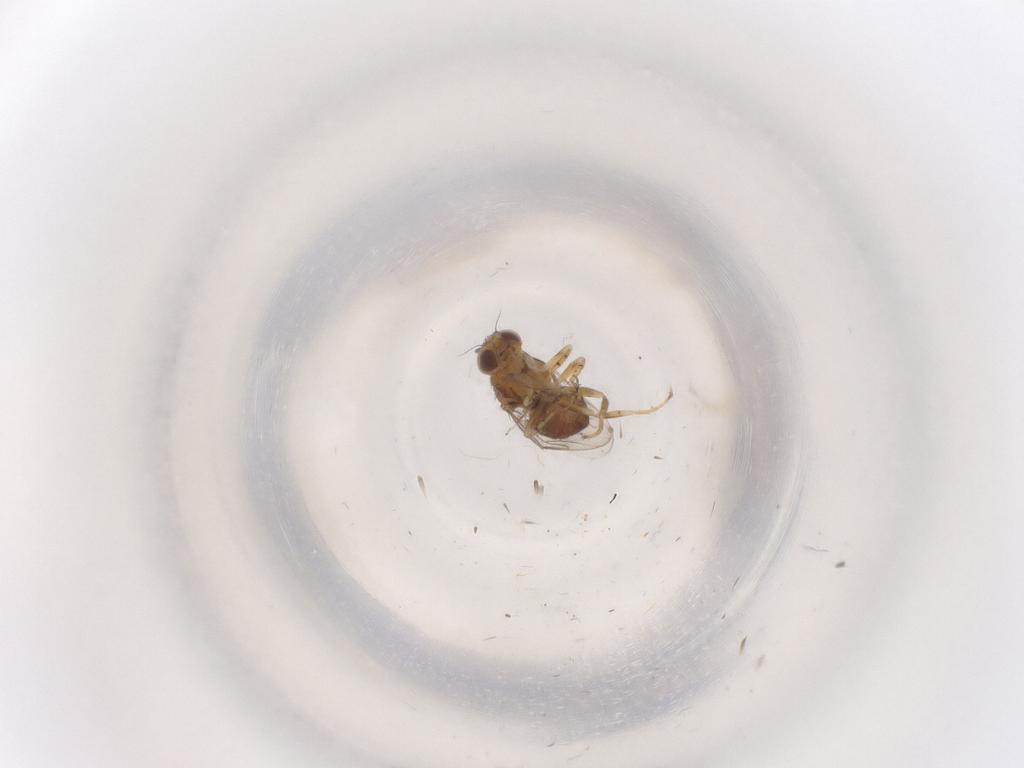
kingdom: Animalia
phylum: Arthropoda
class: Insecta
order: Diptera
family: Chloropidae
